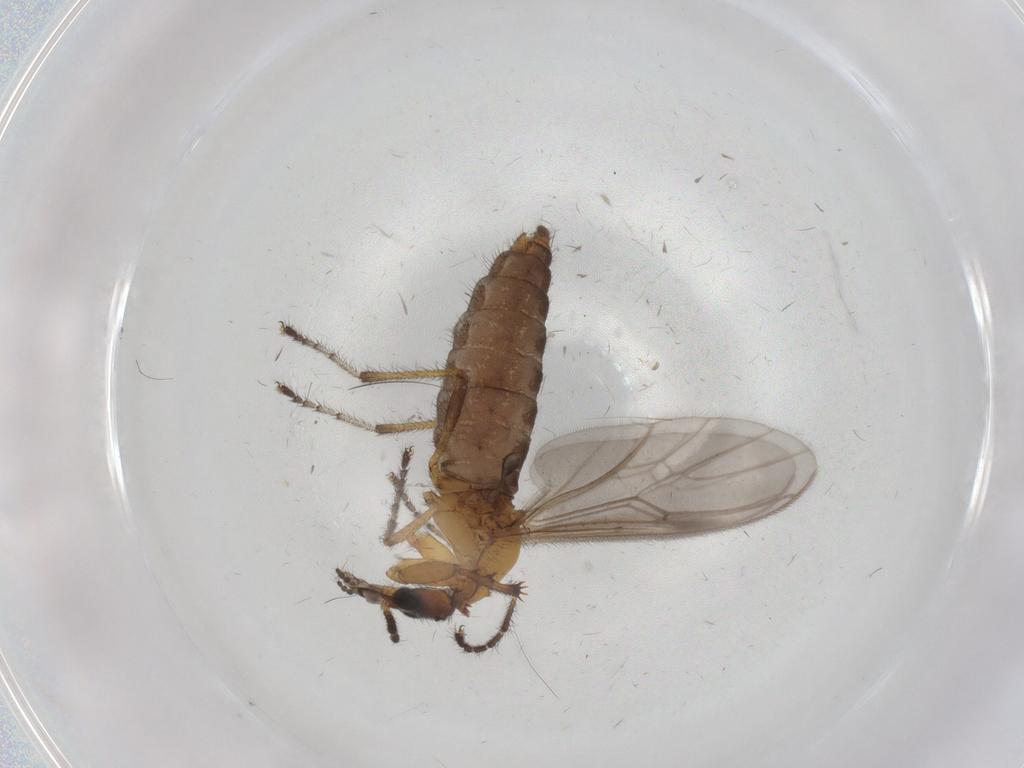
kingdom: Animalia
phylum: Arthropoda
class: Insecta
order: Diptera
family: Bibionidae
